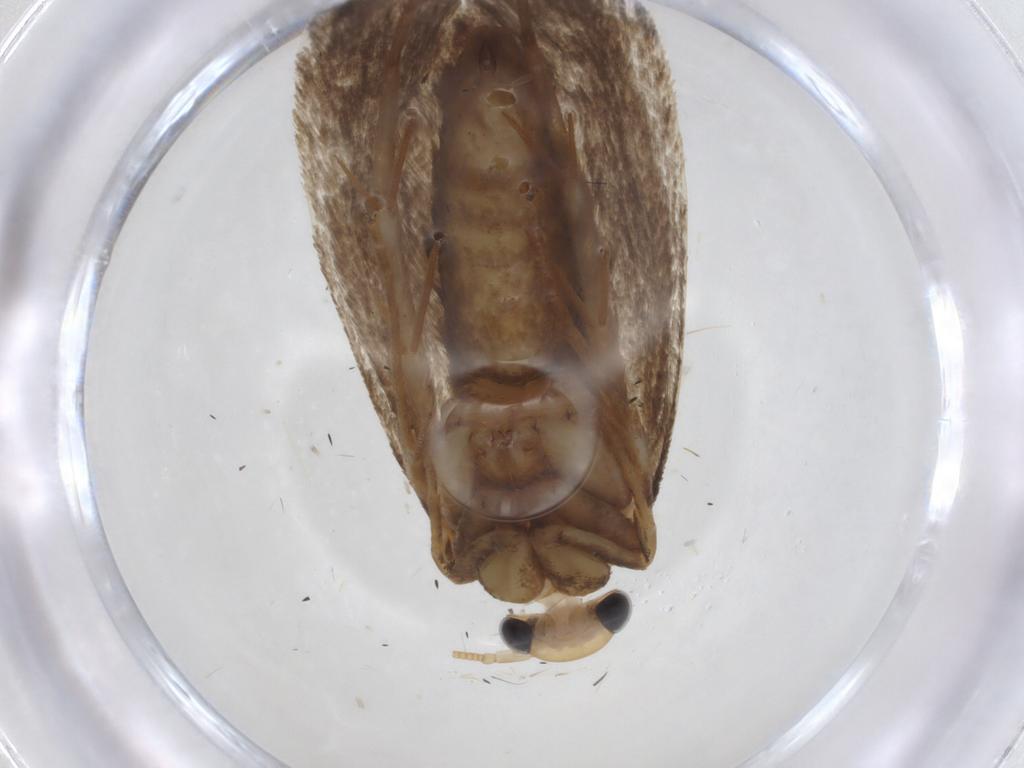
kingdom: Animalia
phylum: Arthropoda
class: Insecta
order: Lepidoptera
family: Tineidae
